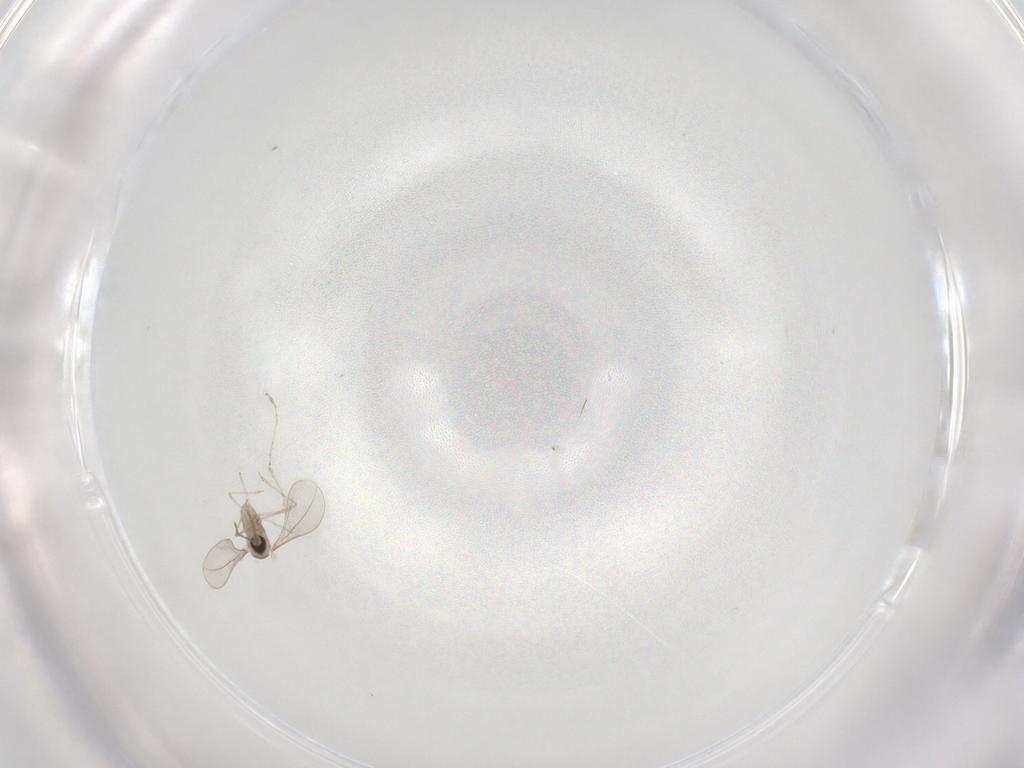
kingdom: Animalia
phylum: Arthropoda
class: Insecta
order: Diptera
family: Cecidomyiidae
